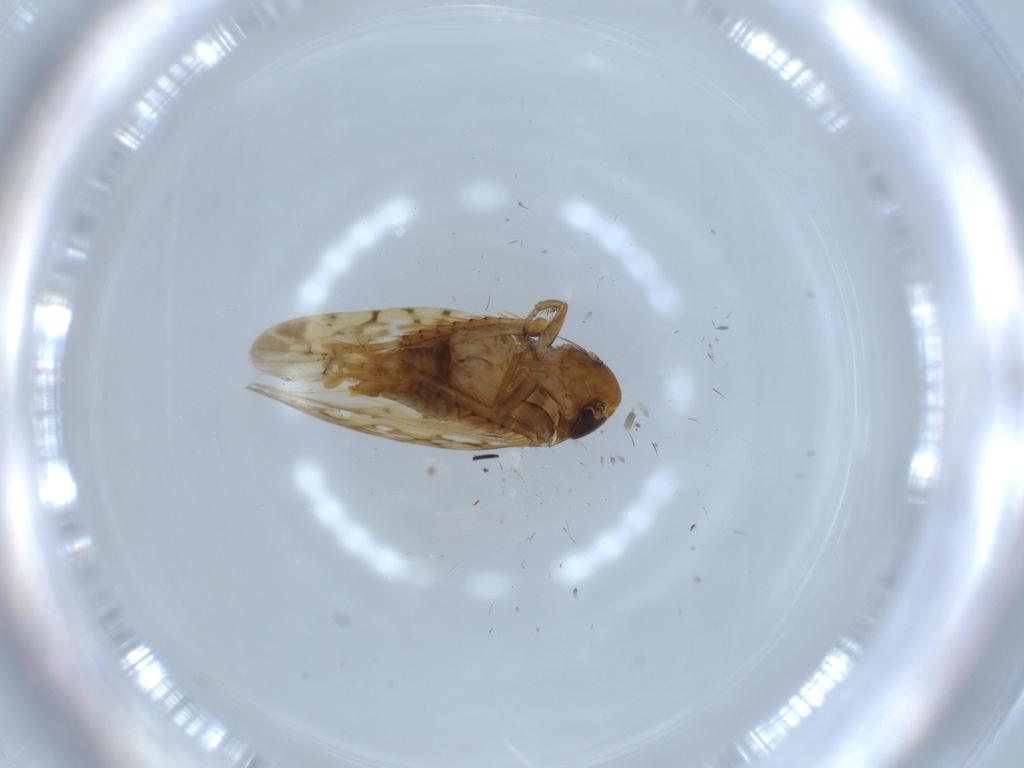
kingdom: Animalia
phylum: Arthropoda
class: Insecta
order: Hemiptera
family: Cicadellidae
